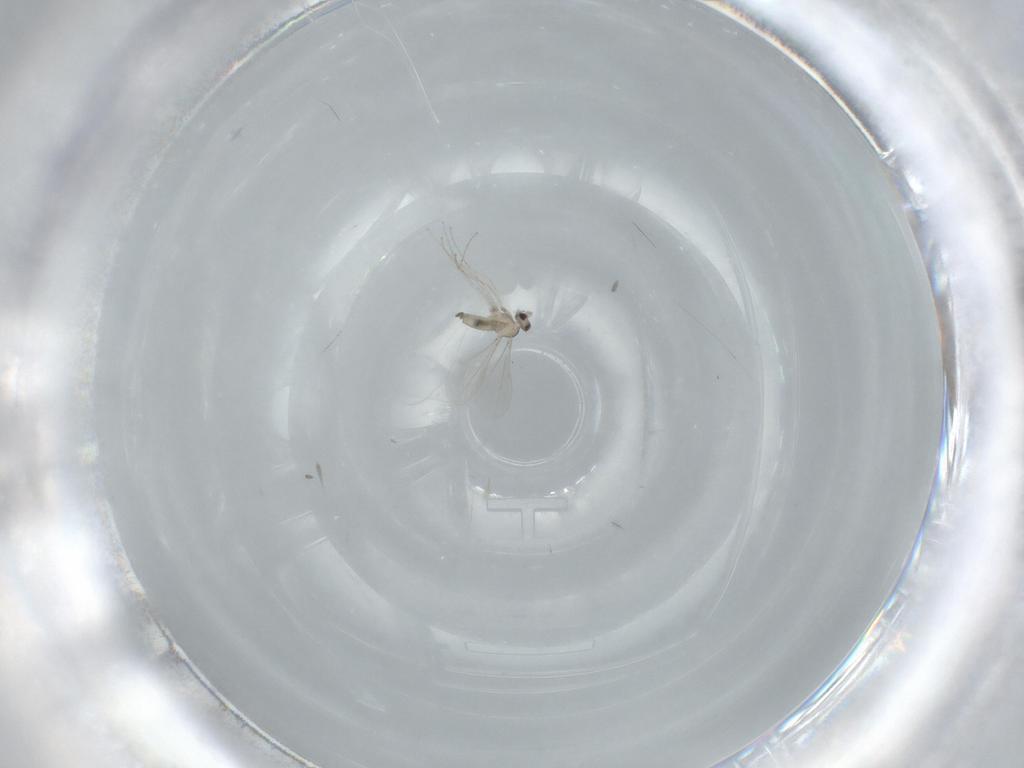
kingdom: Animalia
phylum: Arthropoda
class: Insecta
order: Diptera
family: Cecidomyiidae
